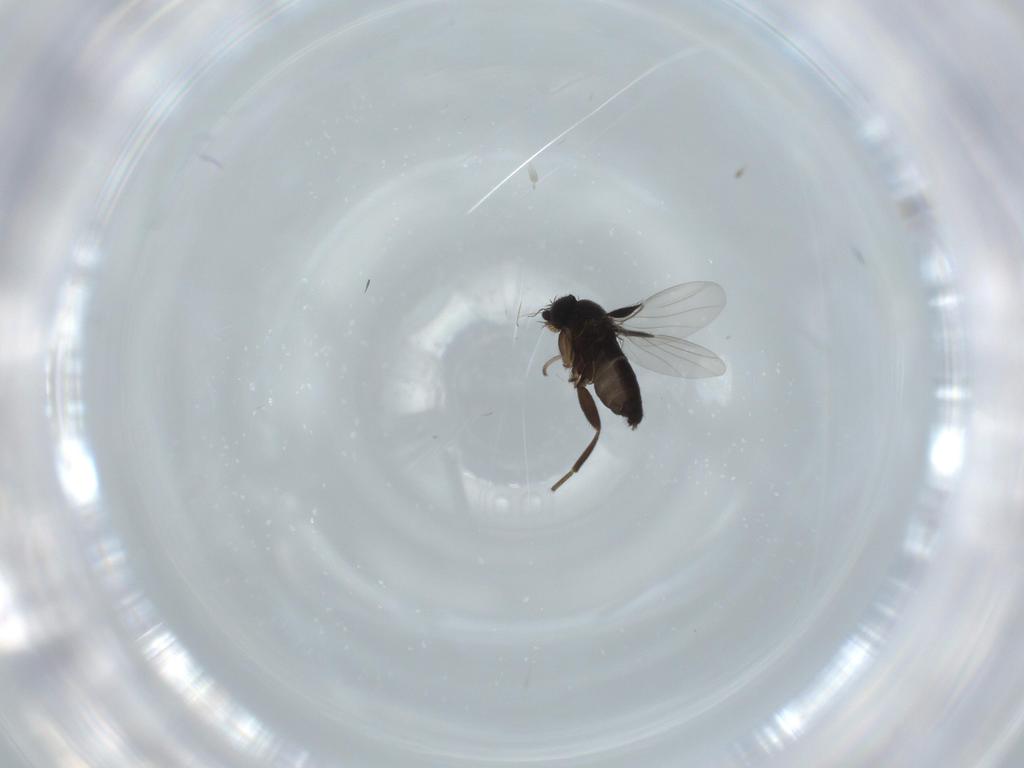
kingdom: Animalia
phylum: Arthropoda
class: Insecta
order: Diptera
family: Phoridae
